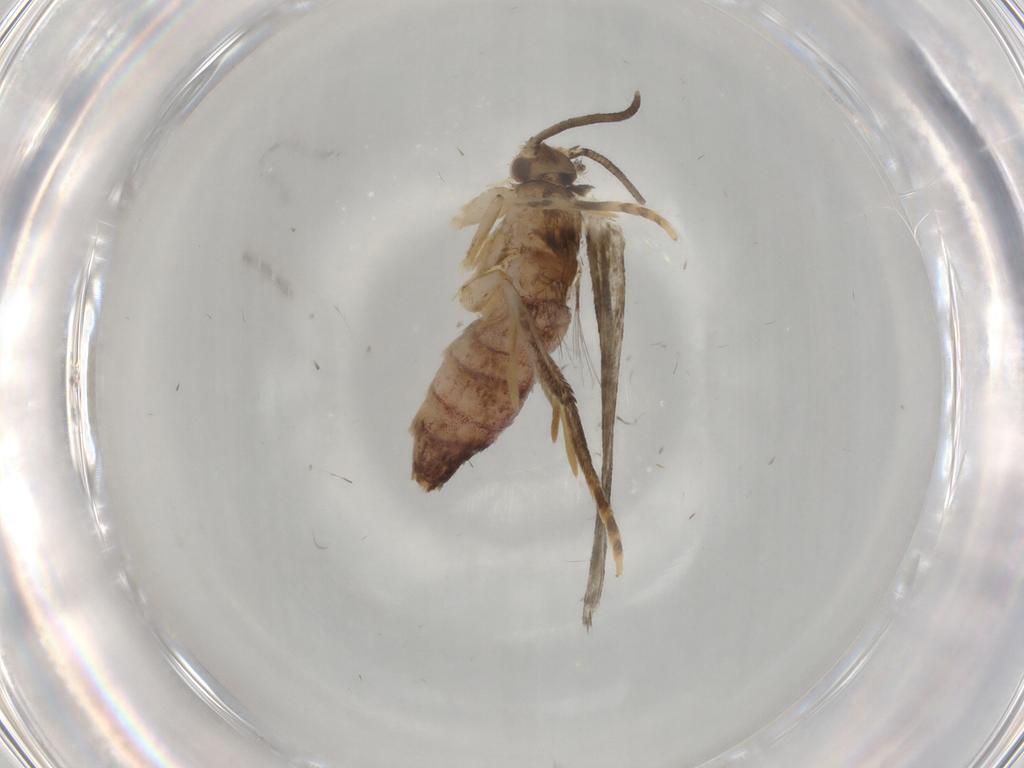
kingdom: Animalia
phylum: Arthropoda
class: Insecta
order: Lepidoptera
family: Dryadaulidae
